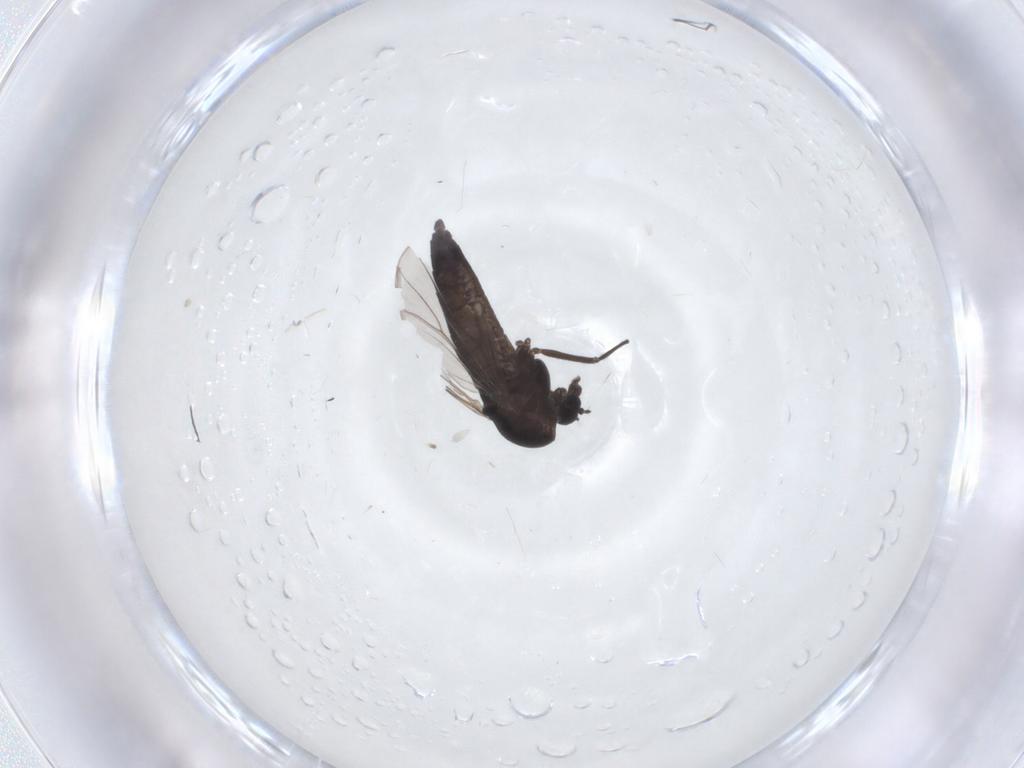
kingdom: Animalia
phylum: Arthropoda
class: Insecta
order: Diptera
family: Chironomidae
